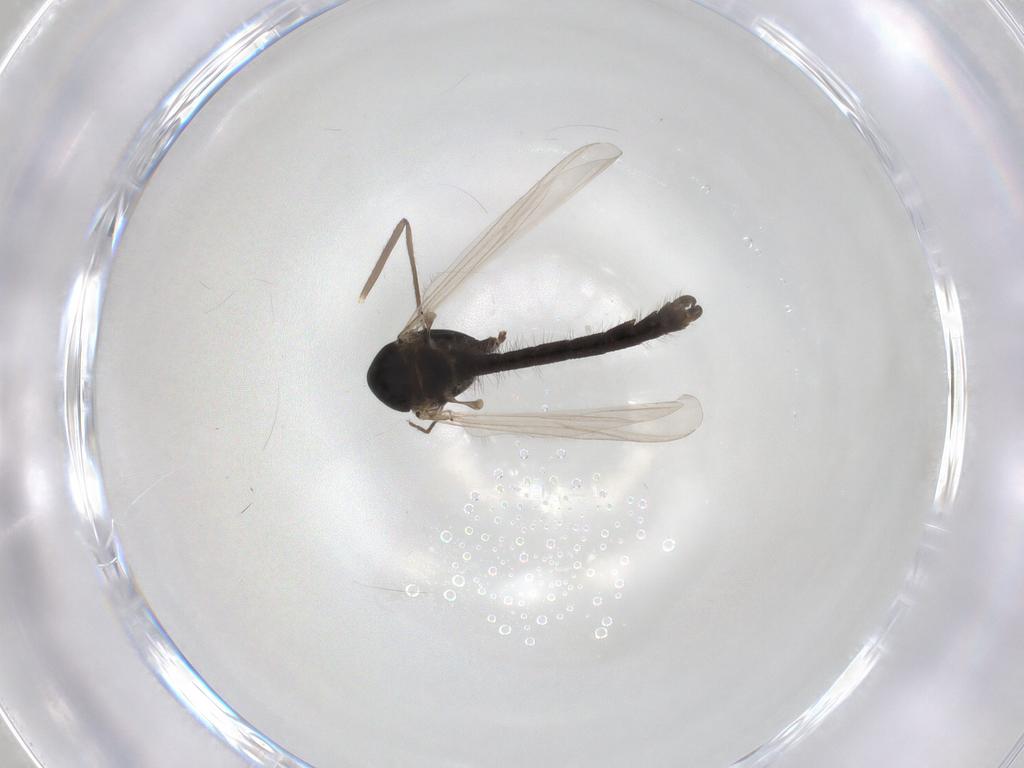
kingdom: Animalia
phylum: Arthropoda
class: Insecta
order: Diptera
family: Chironomidae
